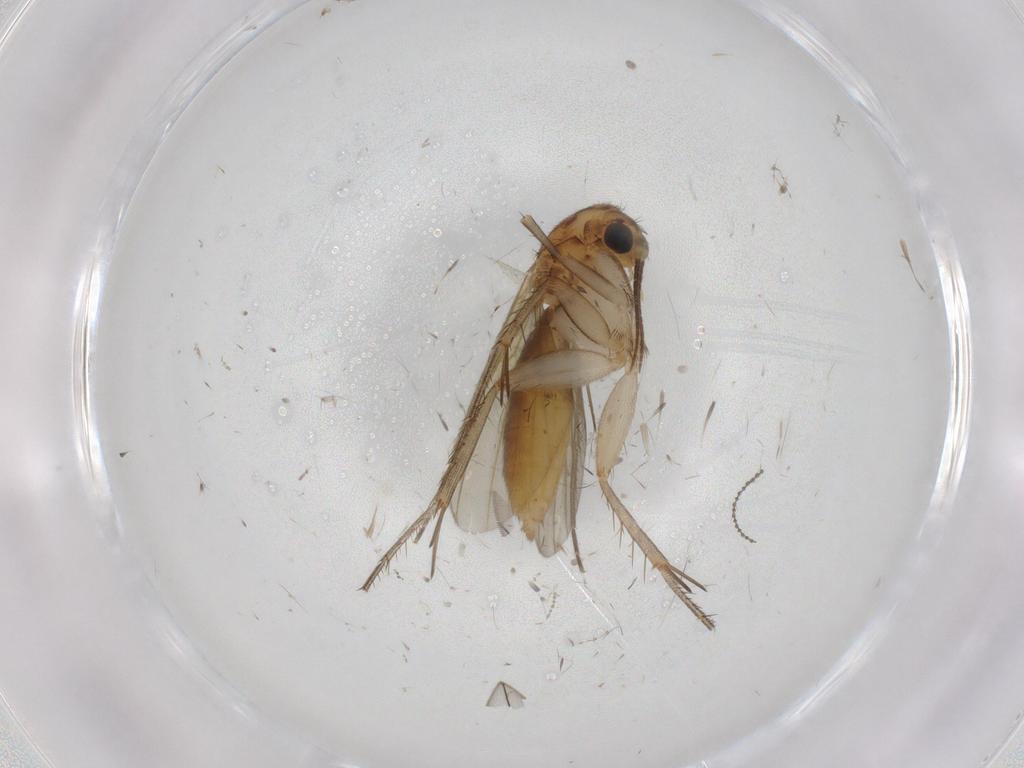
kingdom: Animalia
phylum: Arthropoda
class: Insecta
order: Diptera
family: Mycetophilidae
